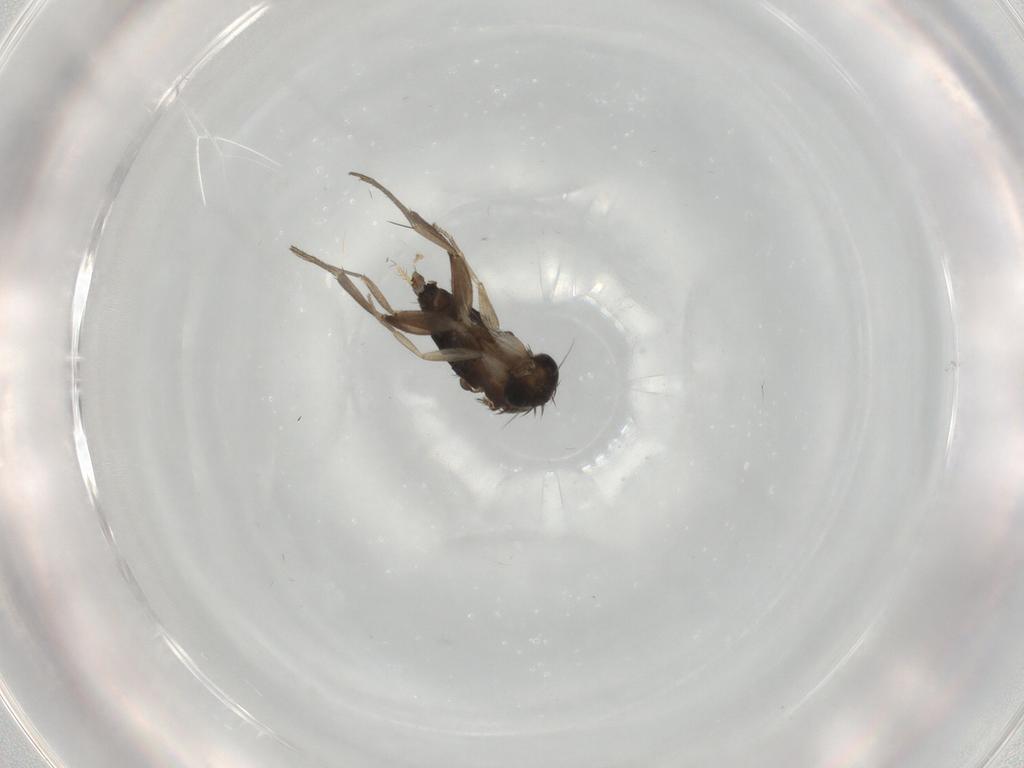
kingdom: Animalia
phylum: Arthropoda
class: Insecta
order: Diptera
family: Phoridae
